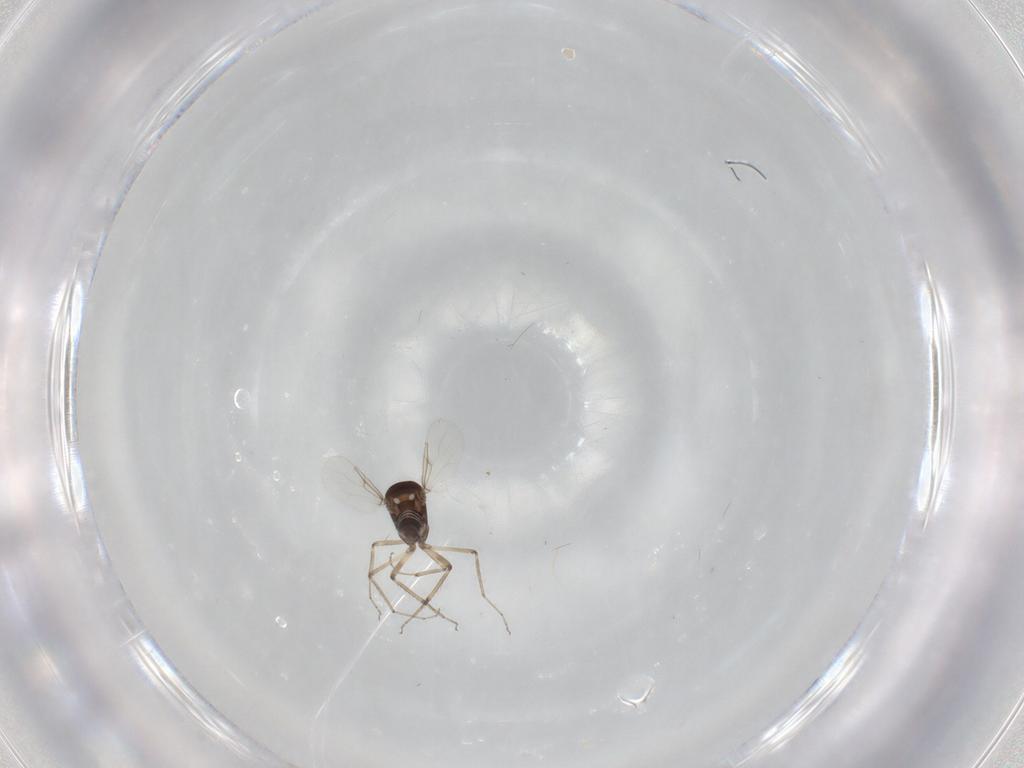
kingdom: Animalia
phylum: Arthropoda
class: Insecta
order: Diptera
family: Ceratopogonidae
